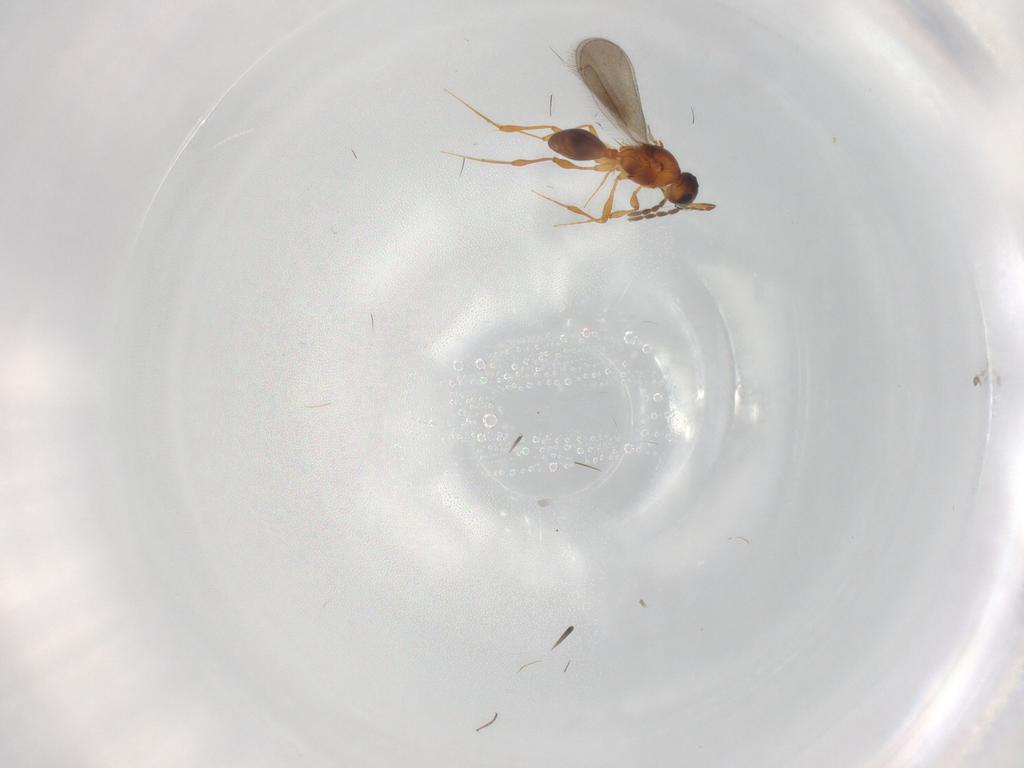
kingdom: Animalia
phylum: Arthropoda
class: Insecta
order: Hymenoptera
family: Platygastridae
